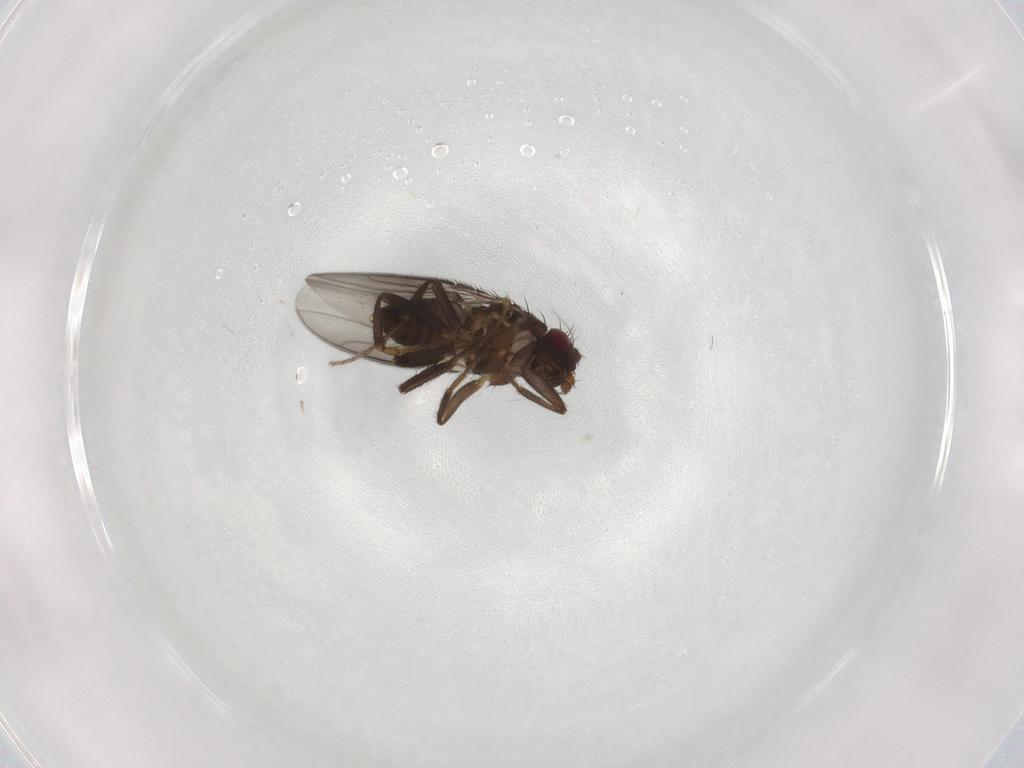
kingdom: Animalia
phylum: Arthropoda
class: Insecta
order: Diptera
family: Sphaeroceridae
